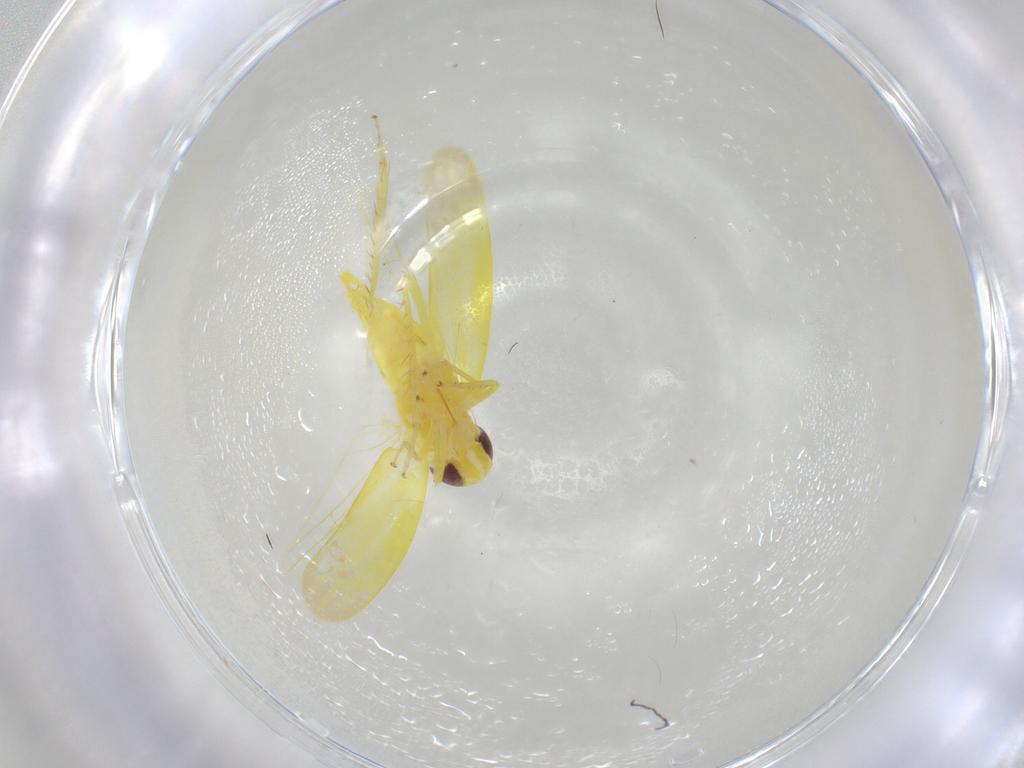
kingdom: Animalia
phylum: Arthropoda
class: Insecta
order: Hemiptera
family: Cicadellidae
